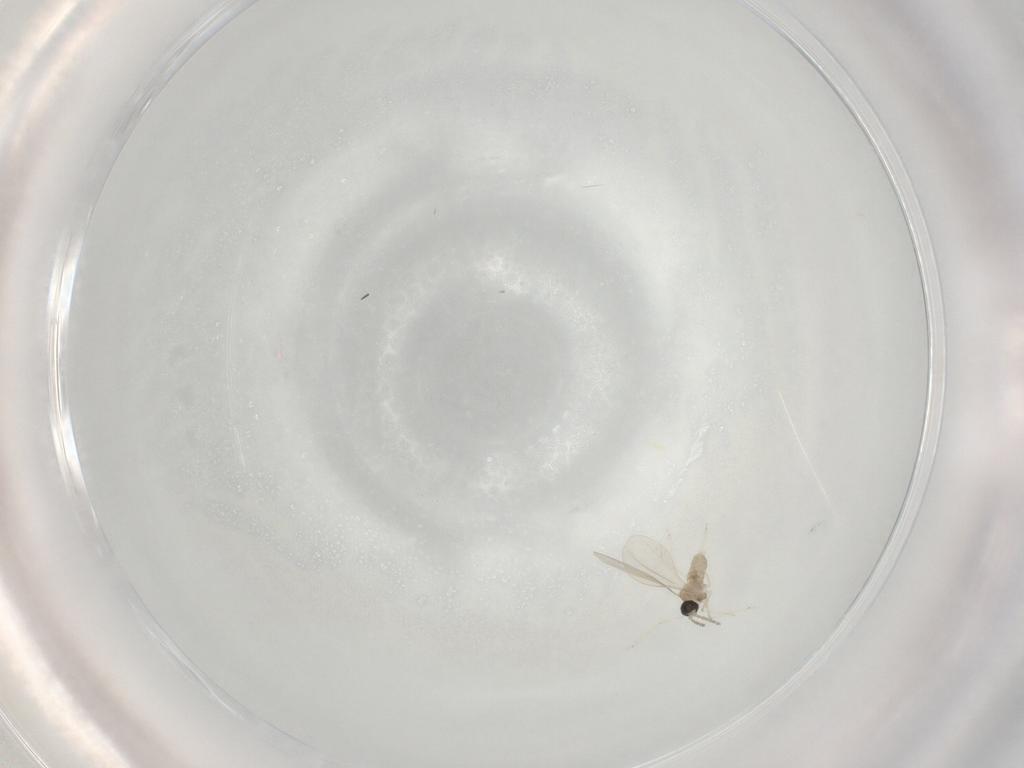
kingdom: Animalia
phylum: Arthropoda
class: Insecta
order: Diptera
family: Cecidomyiidae
